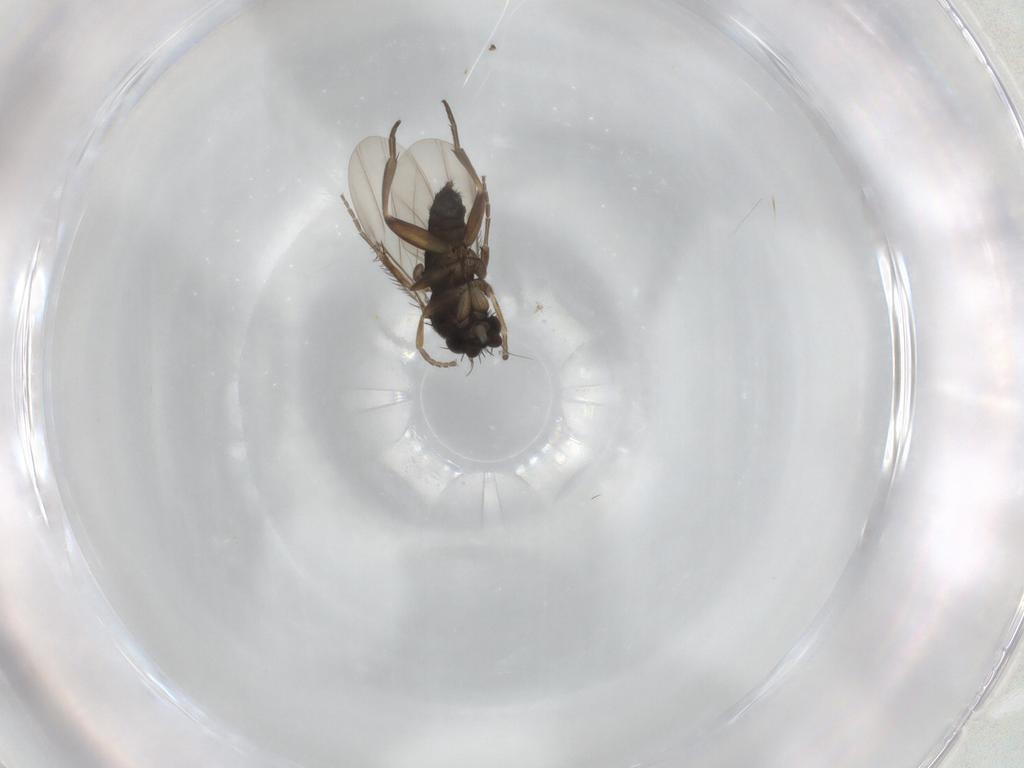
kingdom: Animalia
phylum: Arthropoda
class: Insecta
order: Diptera
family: Phoridae
